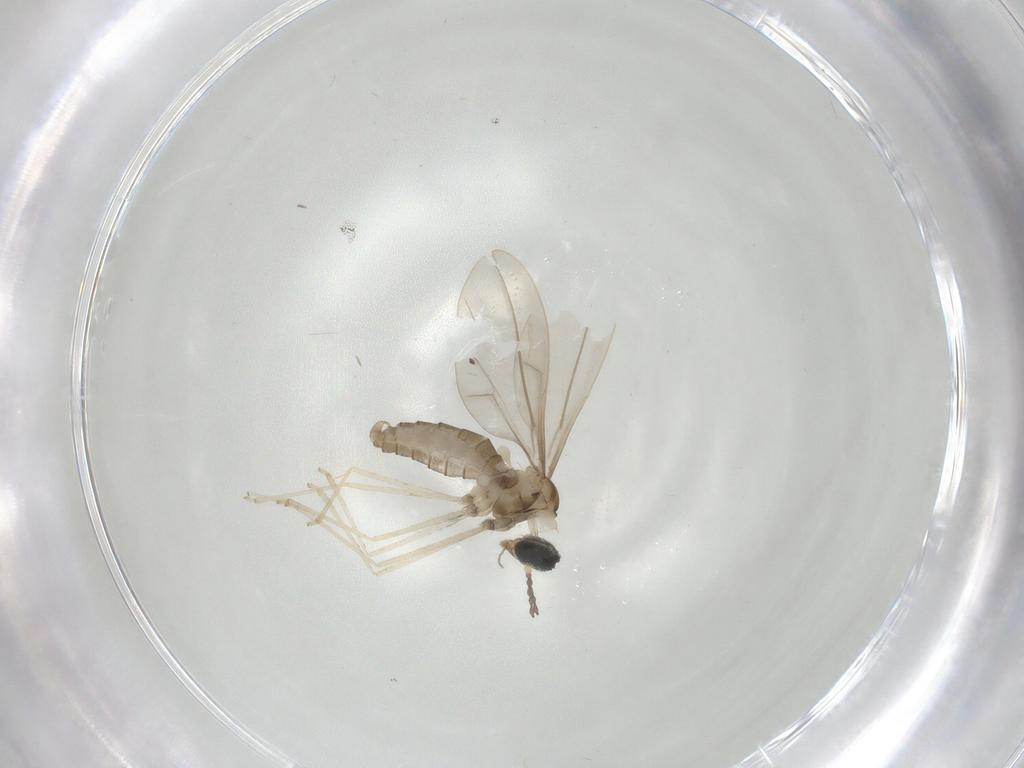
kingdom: Animalia
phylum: Arthropoda
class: Insecta
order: Diptera
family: Cecidomyiidae
